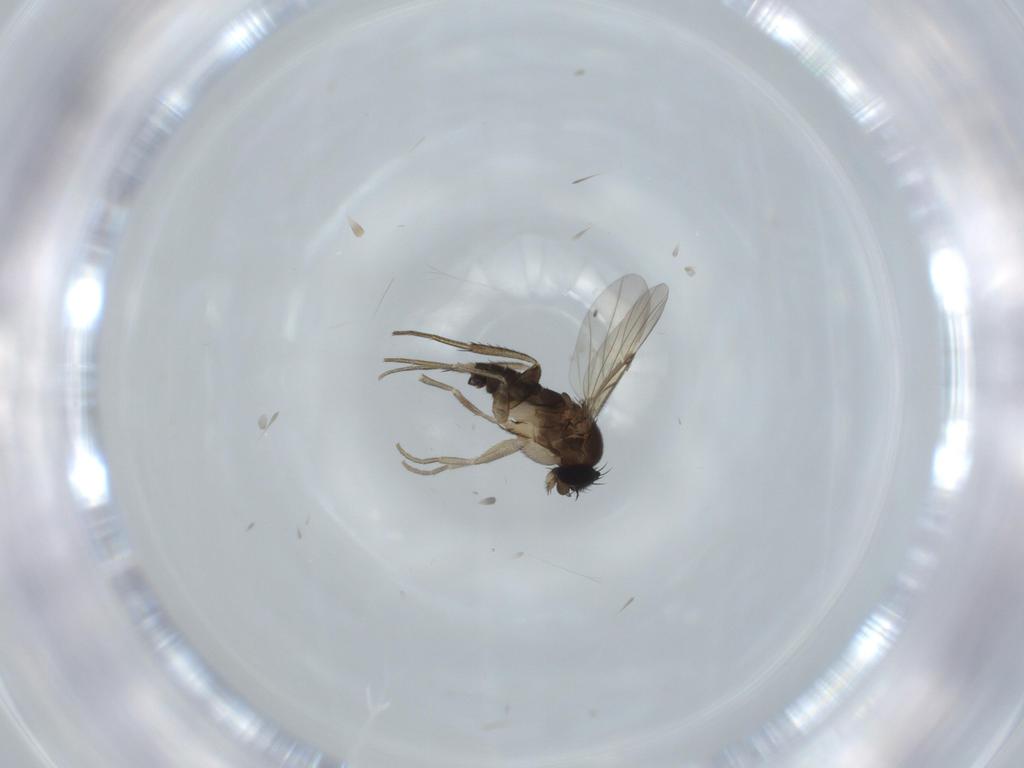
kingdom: Animalia
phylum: Arthropoda
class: Insecta
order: Diptera
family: Phoridae
